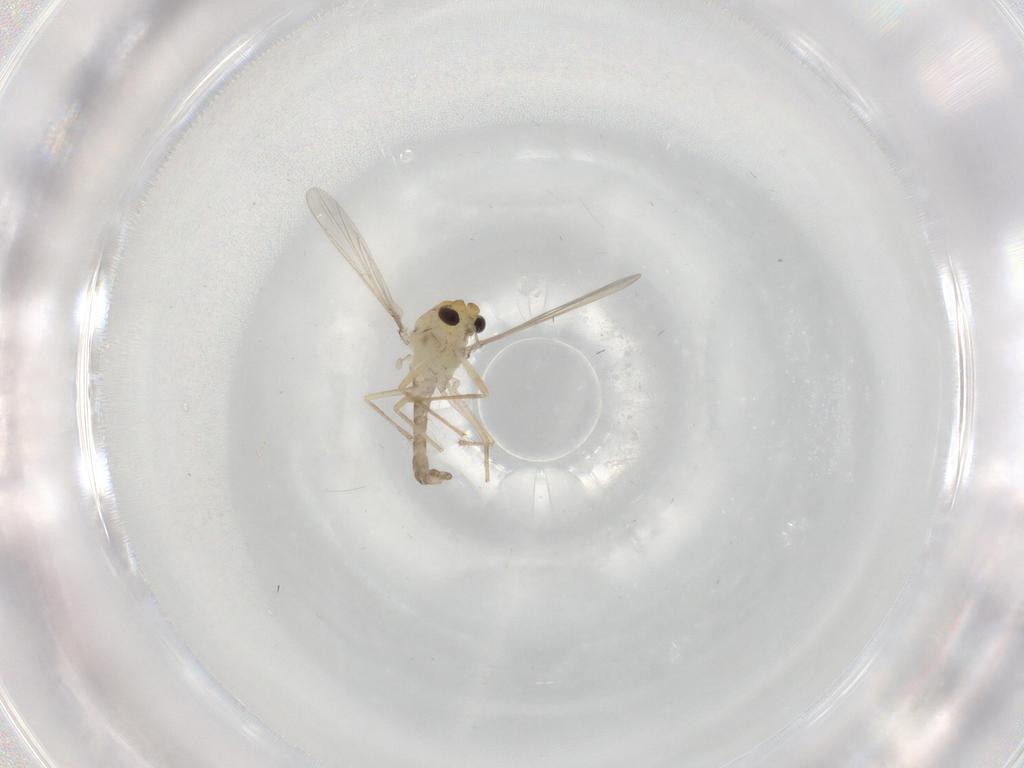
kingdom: Animalia
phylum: Arthropoda
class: Insecta
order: Diptera
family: Chironomidae
